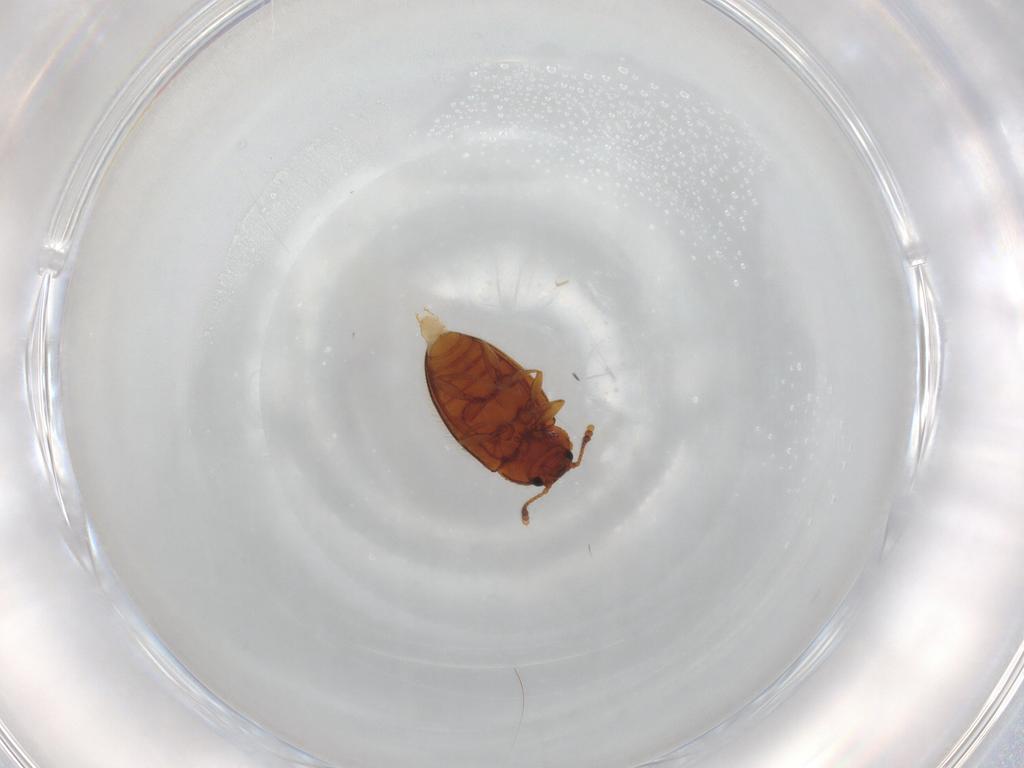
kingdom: Animalia
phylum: Arthropoda
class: Insecta
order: Coleoptera
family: Erotylidae
